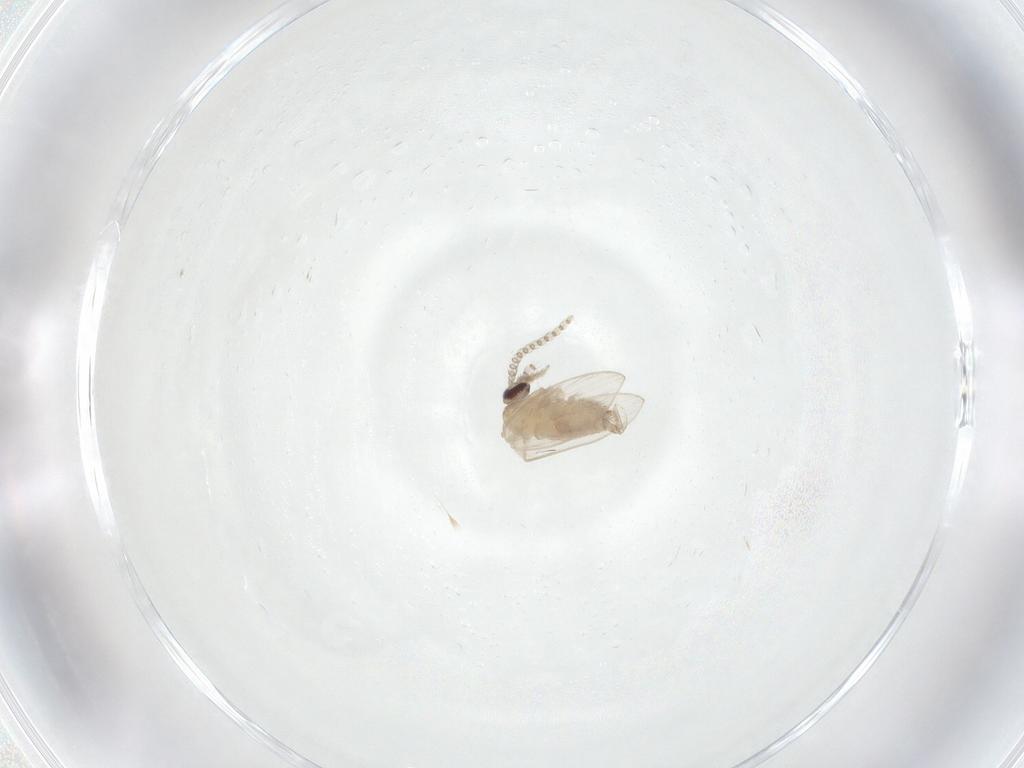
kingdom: Animalia
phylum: Arthropoda
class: Insecta
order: Diptera
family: Psychodidae
